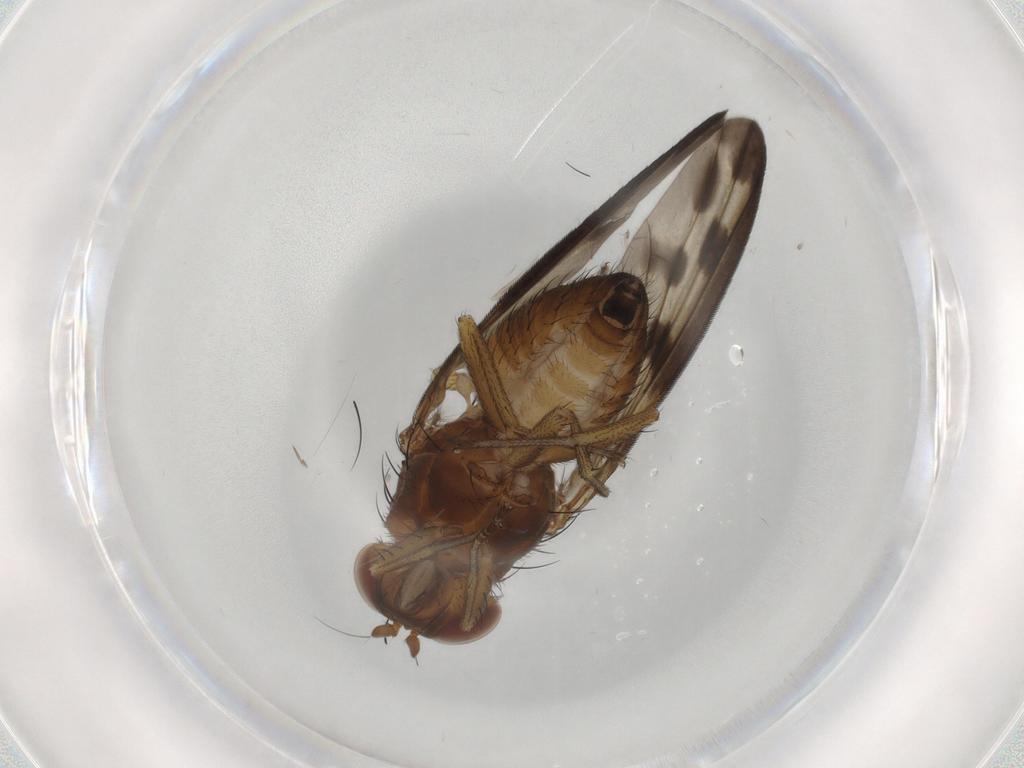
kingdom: Animalia
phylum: Arthropoda
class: Insecta
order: Diptera
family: Lauxaniidae
